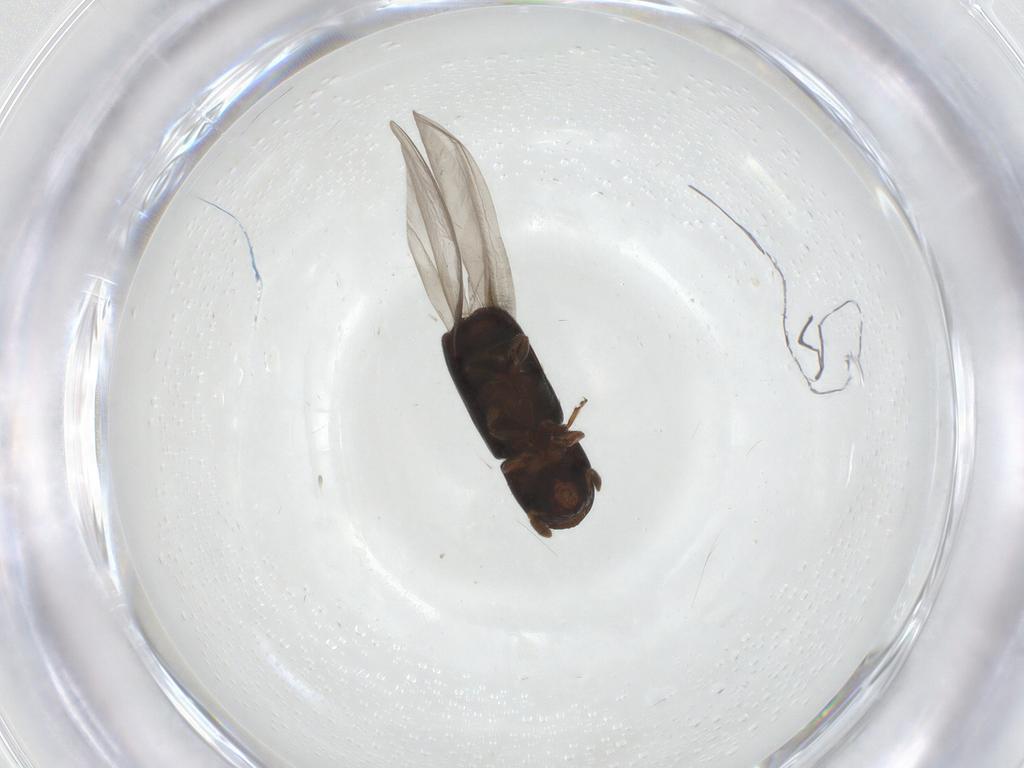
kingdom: Animalia
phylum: Arthropoda
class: Insecta
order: Coleoptera
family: Curculionidae
